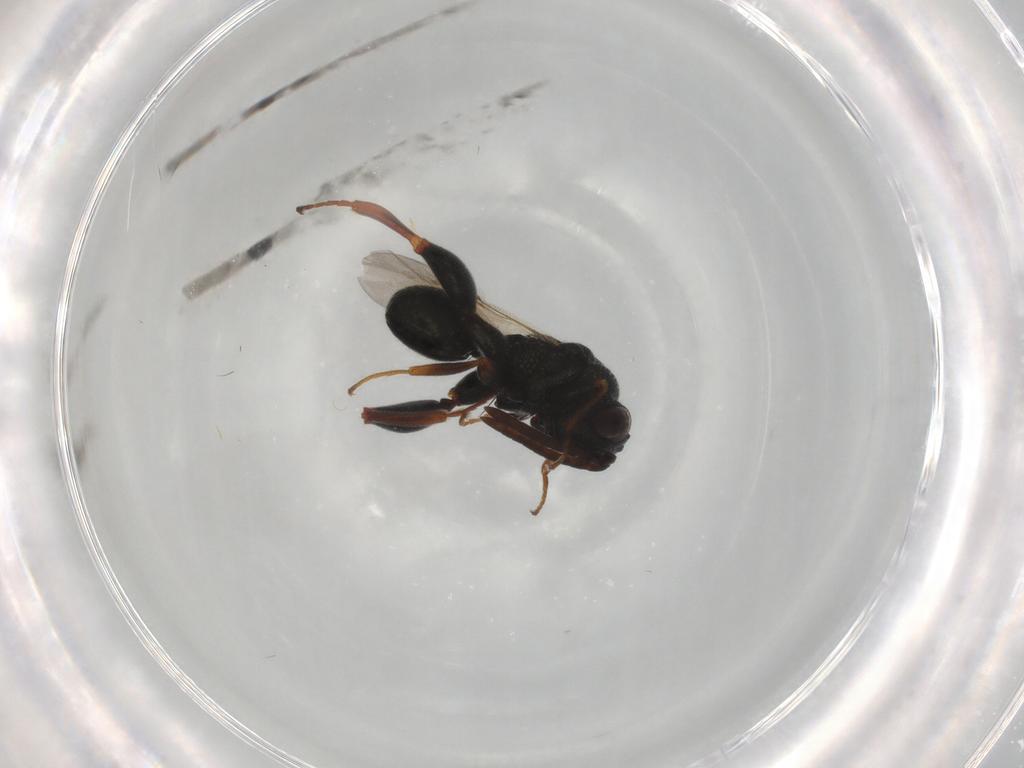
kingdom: Animalia
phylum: Arthropoda
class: Insecta
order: Hymenoptera
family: Chalcididae
